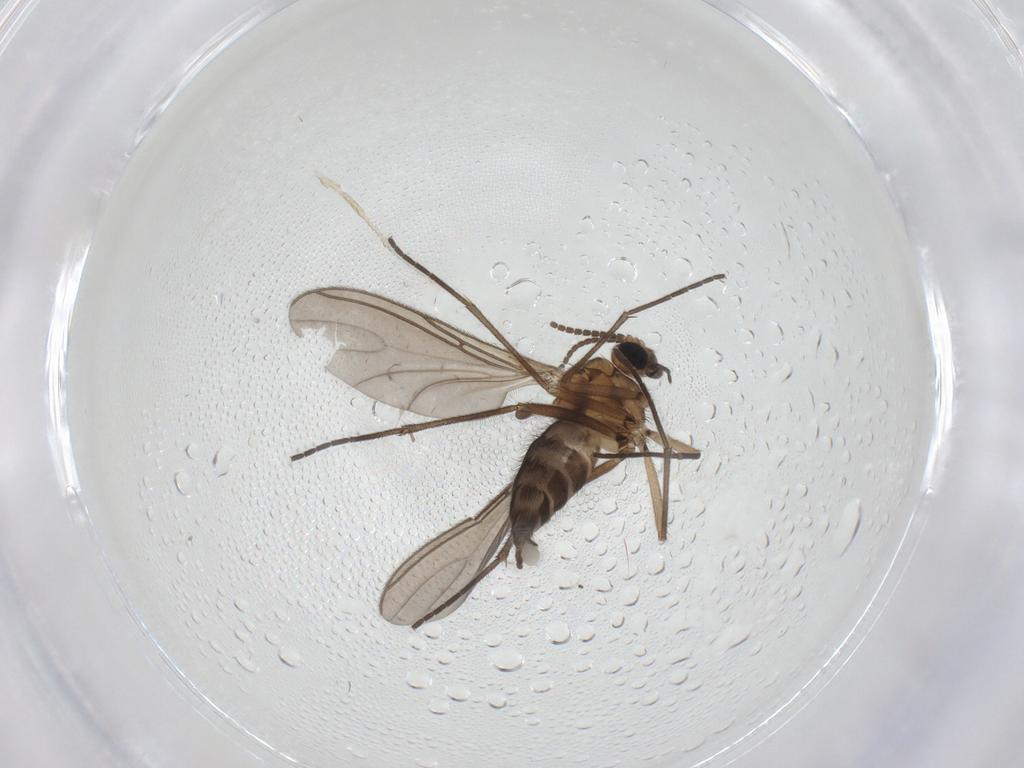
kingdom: Animalia
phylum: Arthropoda
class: Insecta
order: Diptera
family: Sciaridae
